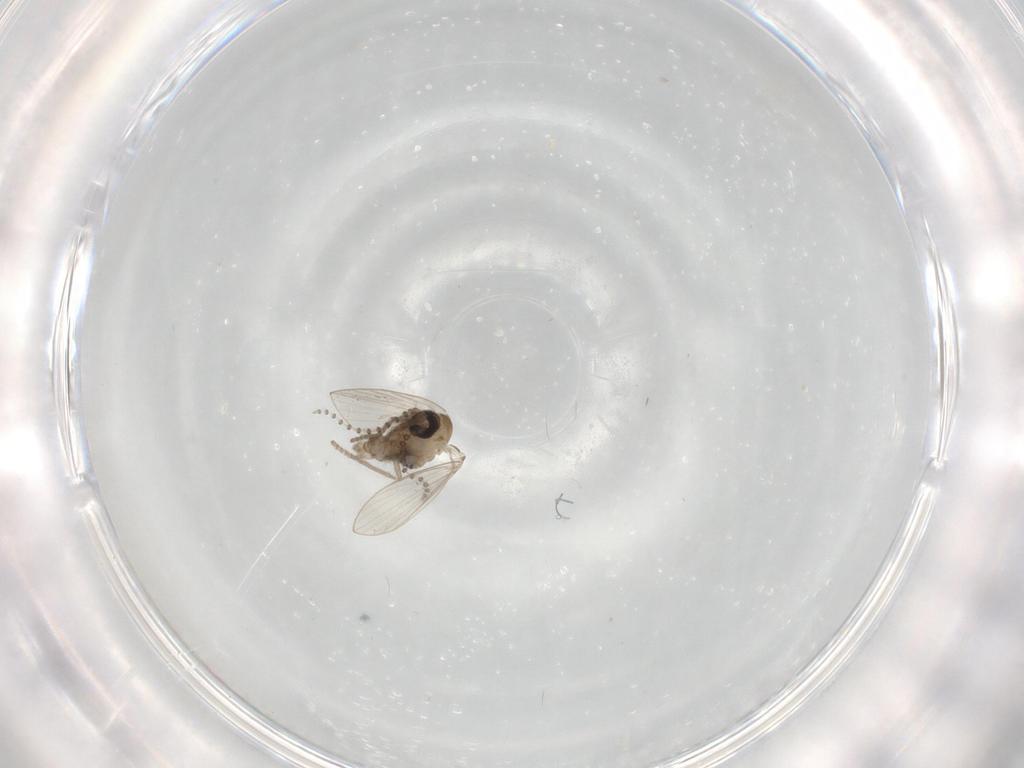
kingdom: Animalia
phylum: Arthropoda
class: Insecta
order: Diptera
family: Psychodidae
